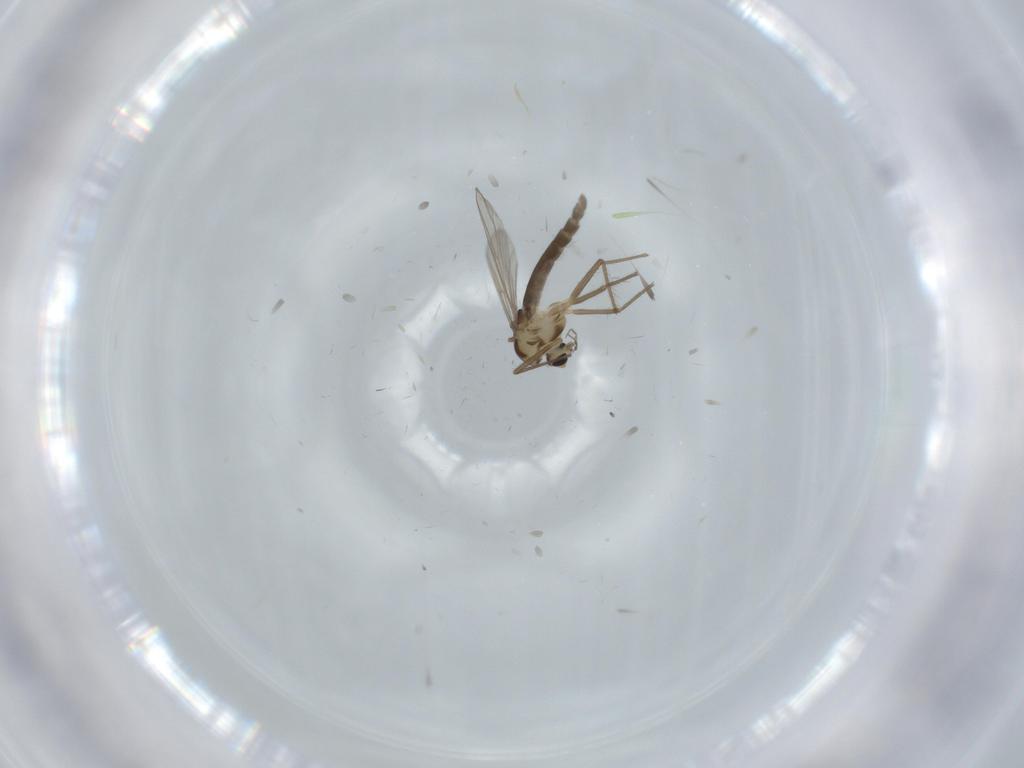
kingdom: Animalia
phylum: Arthropoda
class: Insecta
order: Diptera
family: Chironomidae
